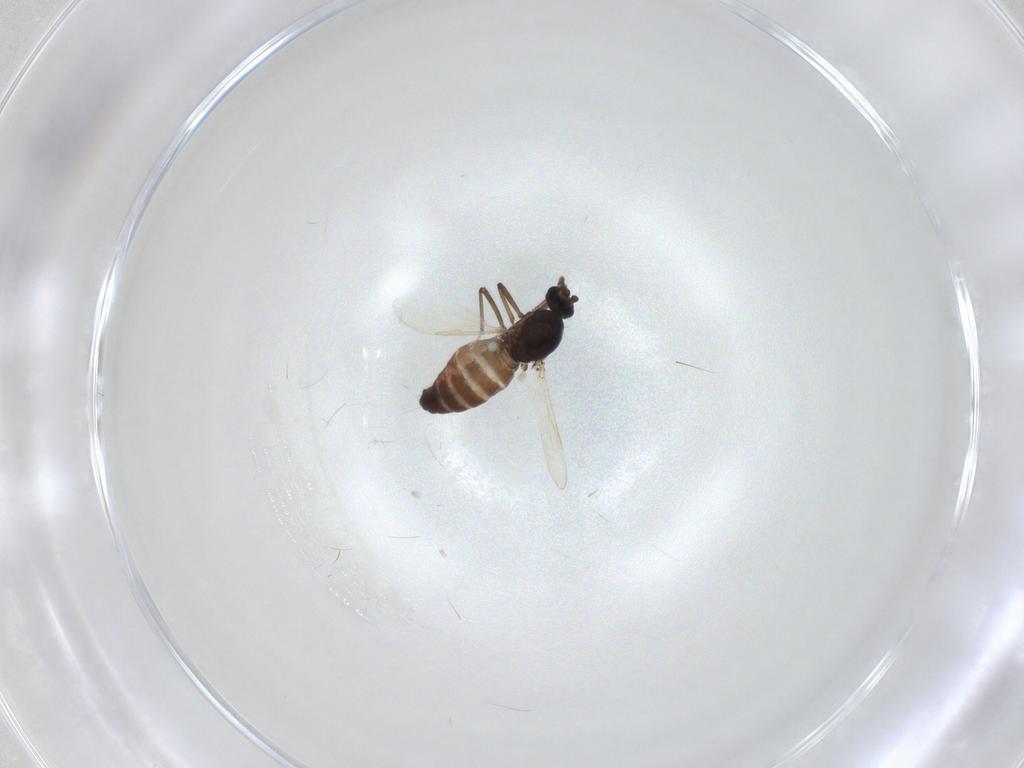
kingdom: Animalia
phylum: Arthropoda
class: Insecta
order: Diptera
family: Ceratopogonidae
